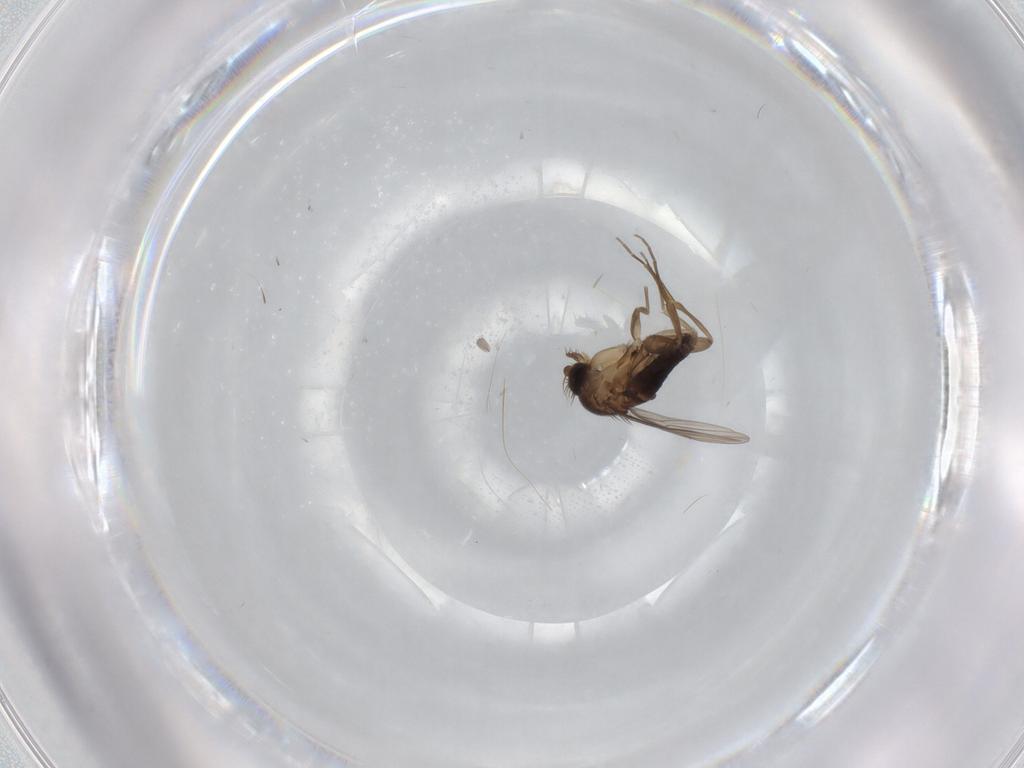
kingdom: Animalia
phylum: Arthropoda
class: Insecta
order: Diptera
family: Phoridae
